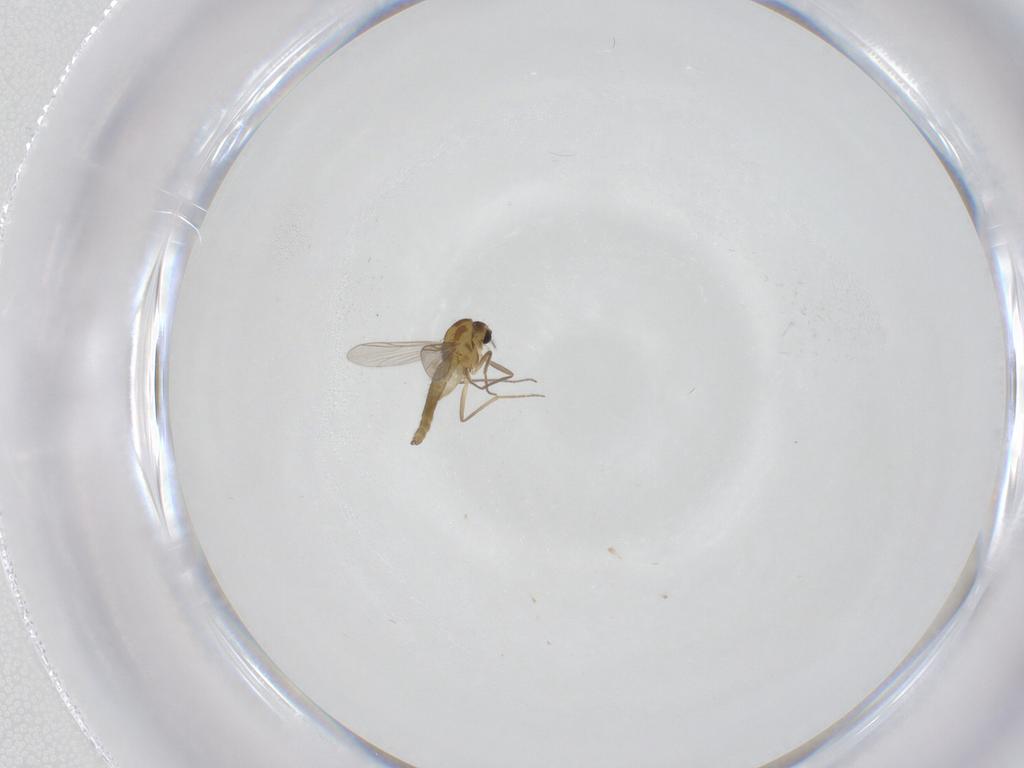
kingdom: Animalia
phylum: Arthropoda
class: Insecta
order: Diptera
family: Chironomidae
